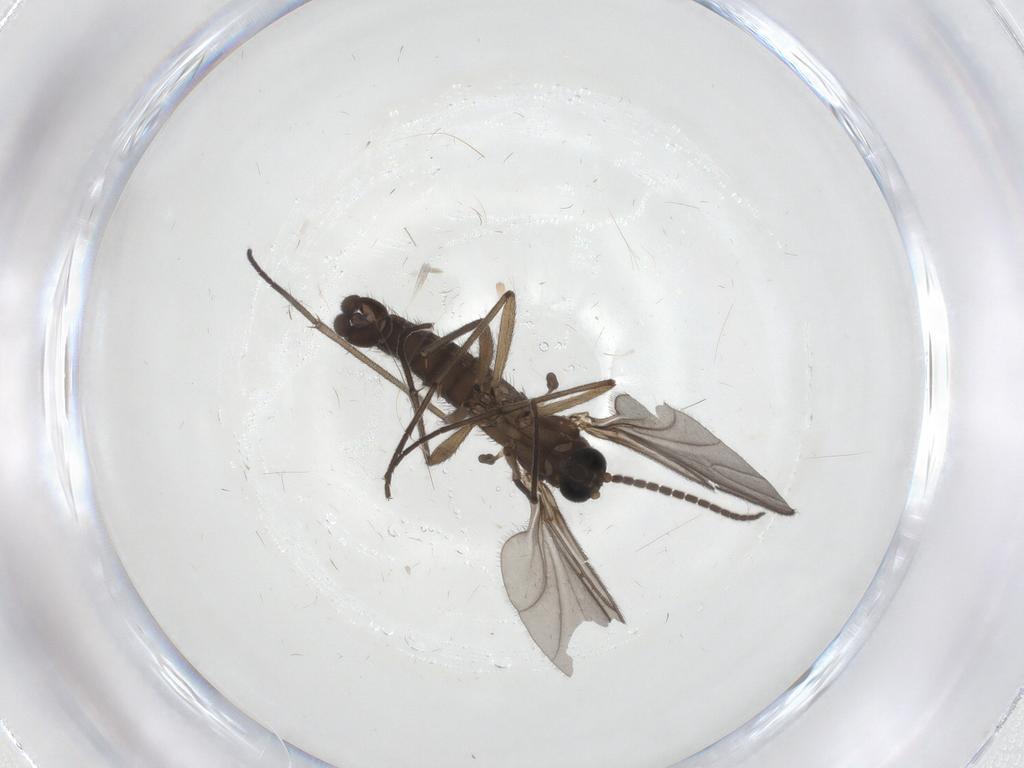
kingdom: Animalia
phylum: Arthropoda
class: Insecta
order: Diptera
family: Sciaridae
